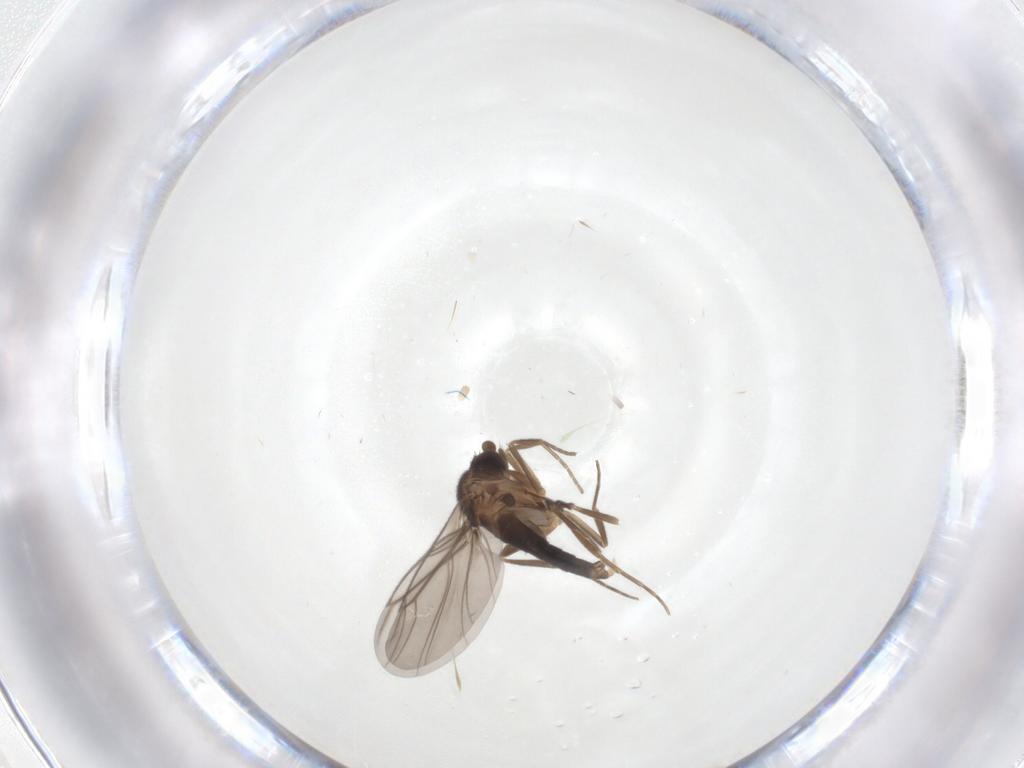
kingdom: Animalia
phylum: Arthropoda
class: Insecta
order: Diptera
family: Phoridae
